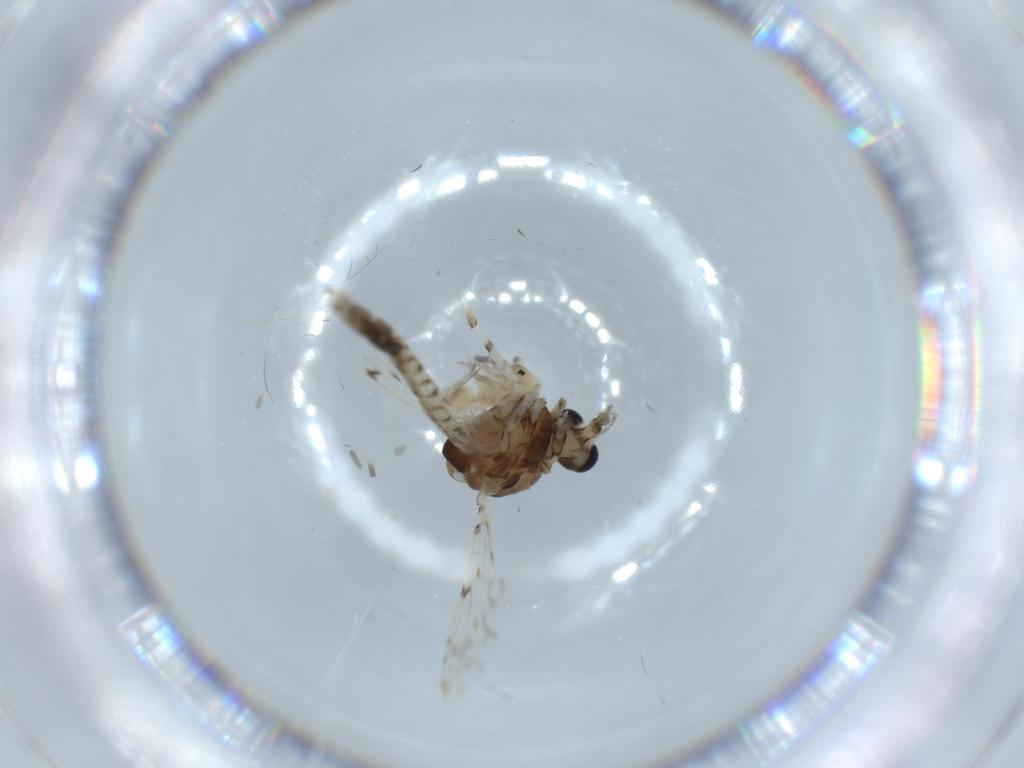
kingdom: Animalia
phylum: Arthropoda
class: Insecta
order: Diptera
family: Chironomidae
